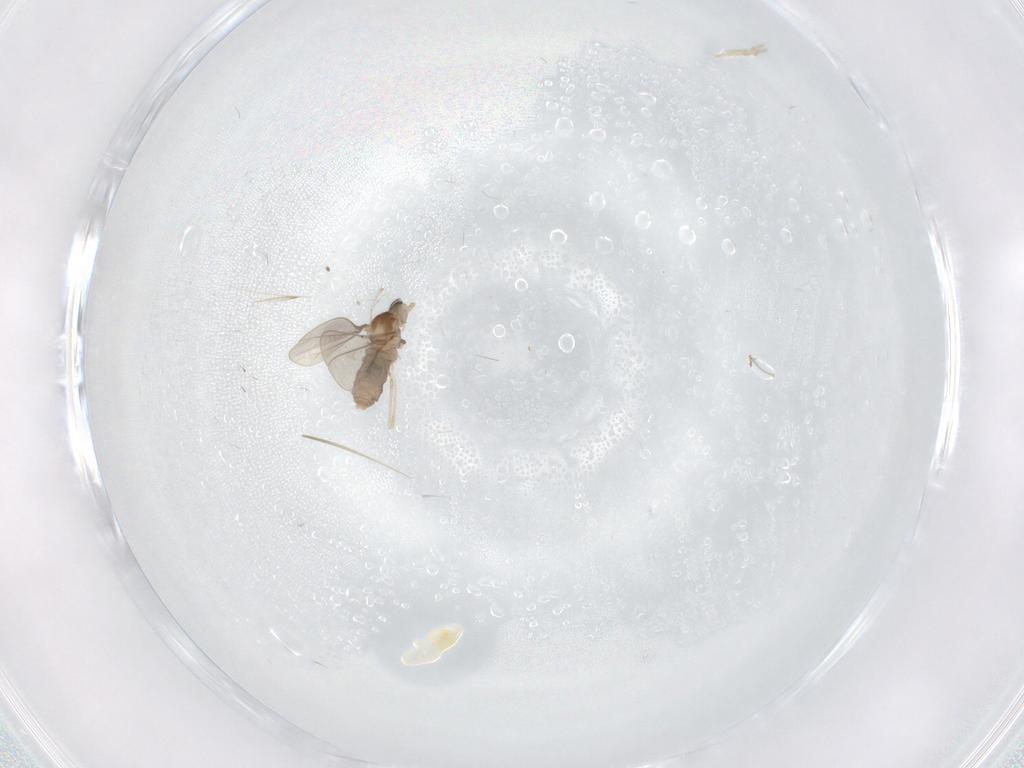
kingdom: Animalia
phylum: Arthropoda
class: Insecta
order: Diptera
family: Cecidomyiidae
